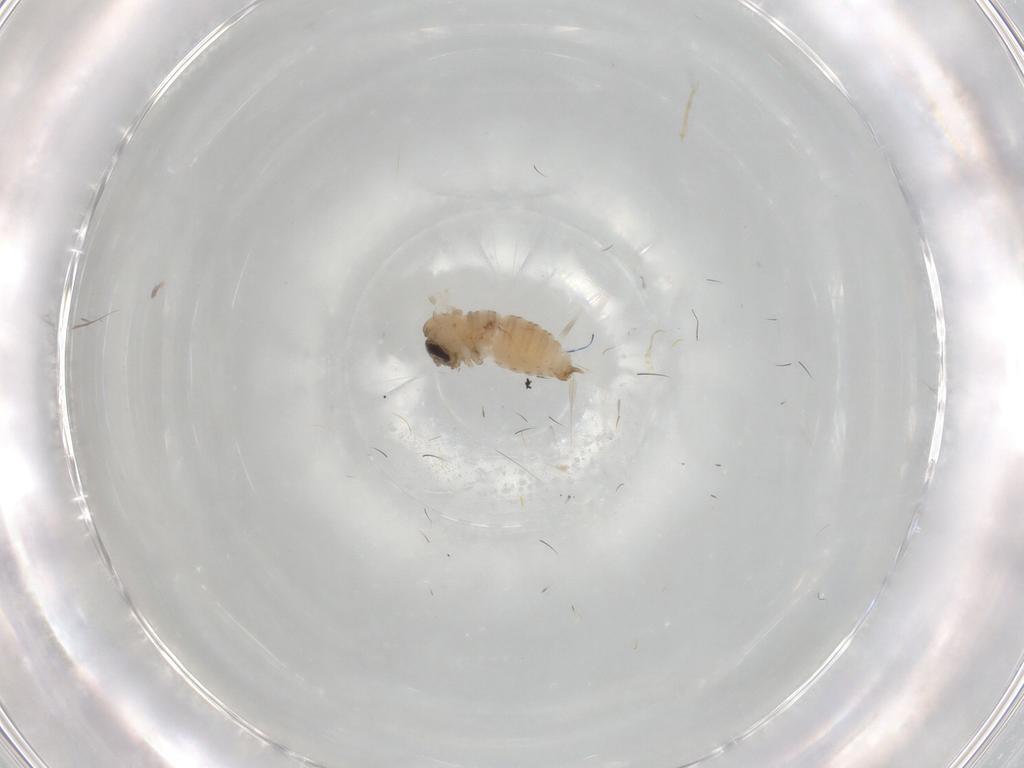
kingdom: Animalia
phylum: Arthropoda
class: Insecta
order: Diptera
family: Psychodidae
